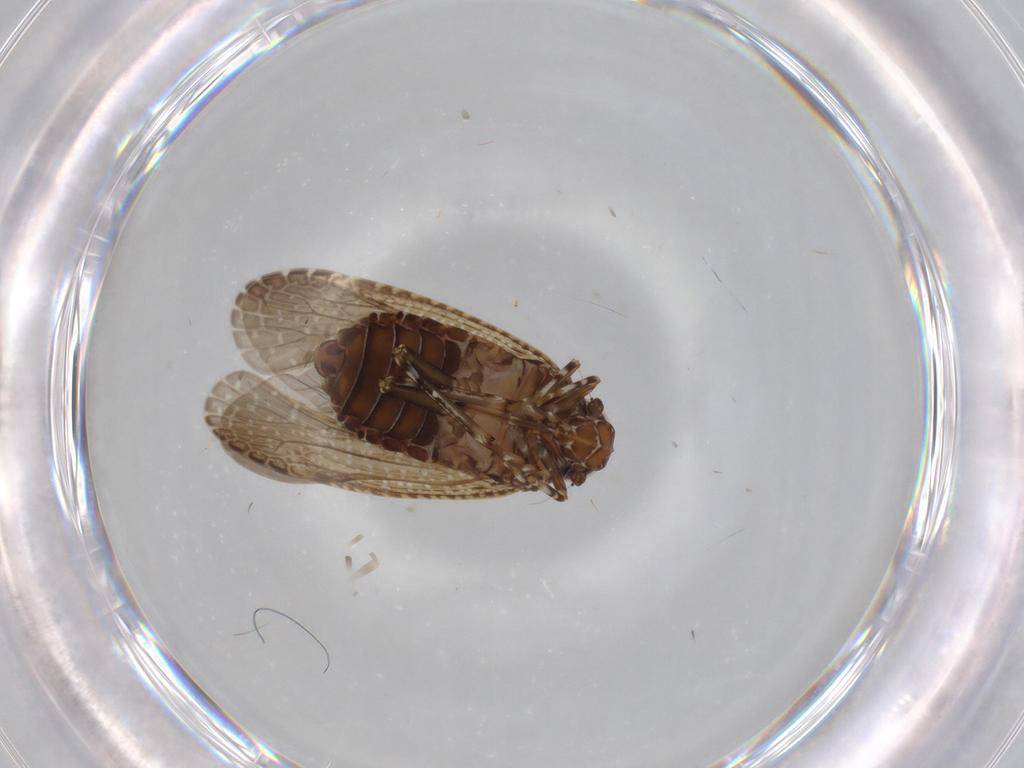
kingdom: Animalia
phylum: Arthropoda
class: Insecta
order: Hemiptera
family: Achilidae
